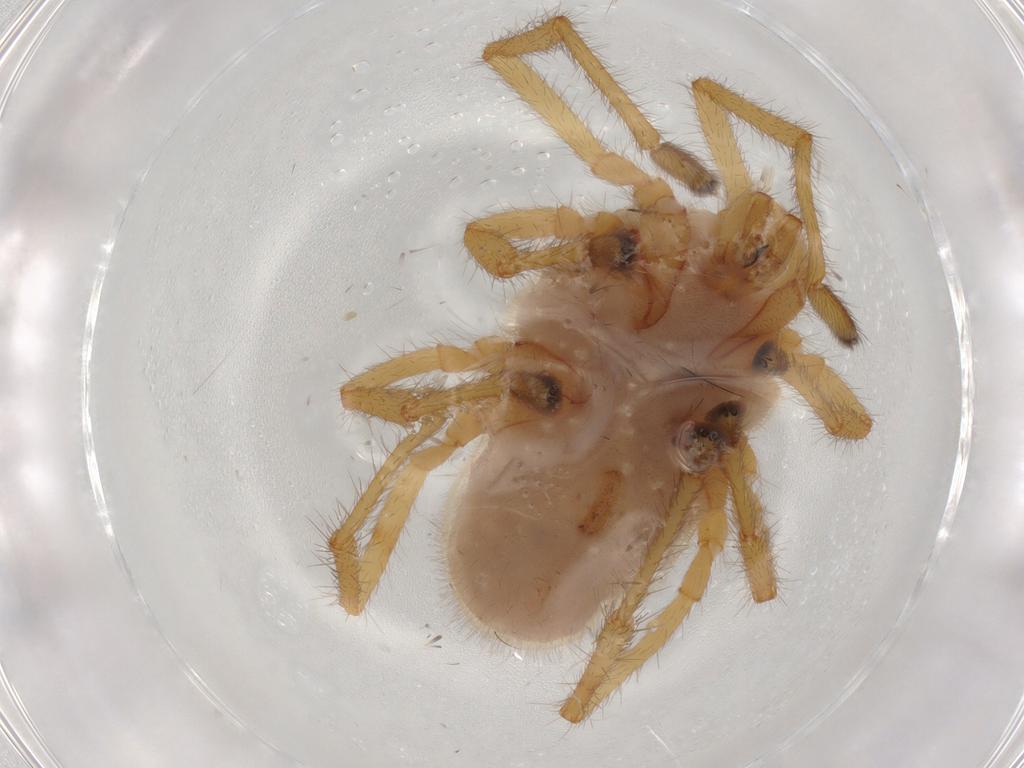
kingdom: Animalia
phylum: Arthropoda
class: Arachnida
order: Trombidiformes
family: Erythraeidae
